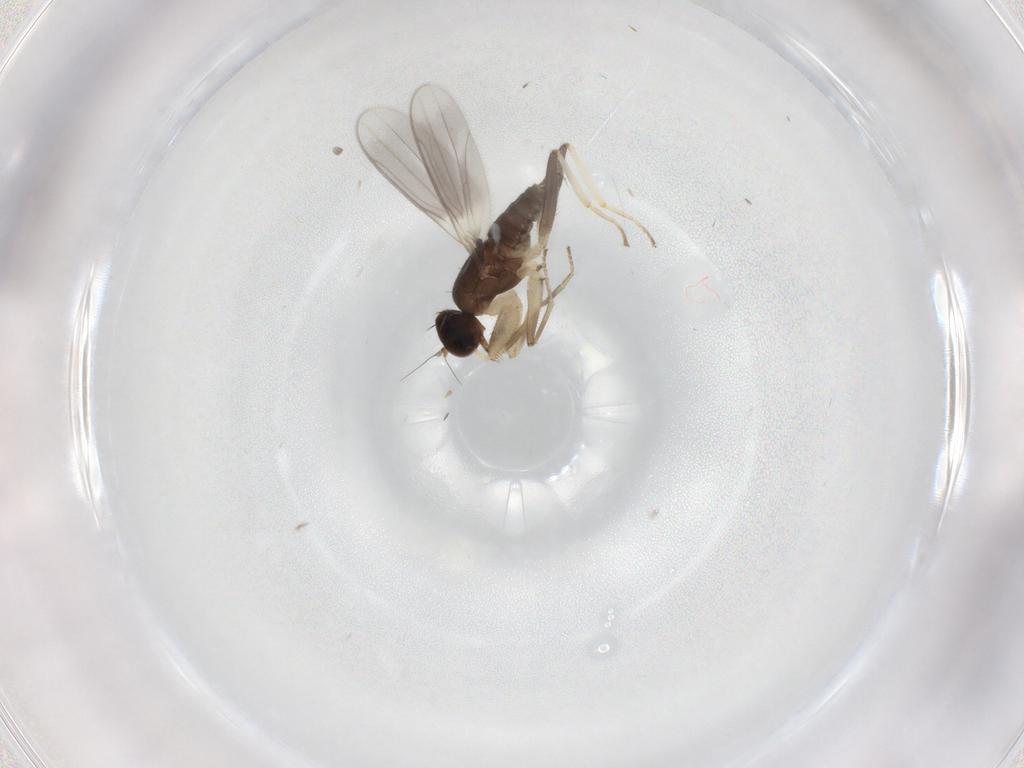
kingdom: Animalia
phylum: Arthropoda
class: Insecta
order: Diptera
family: Hybotidae
